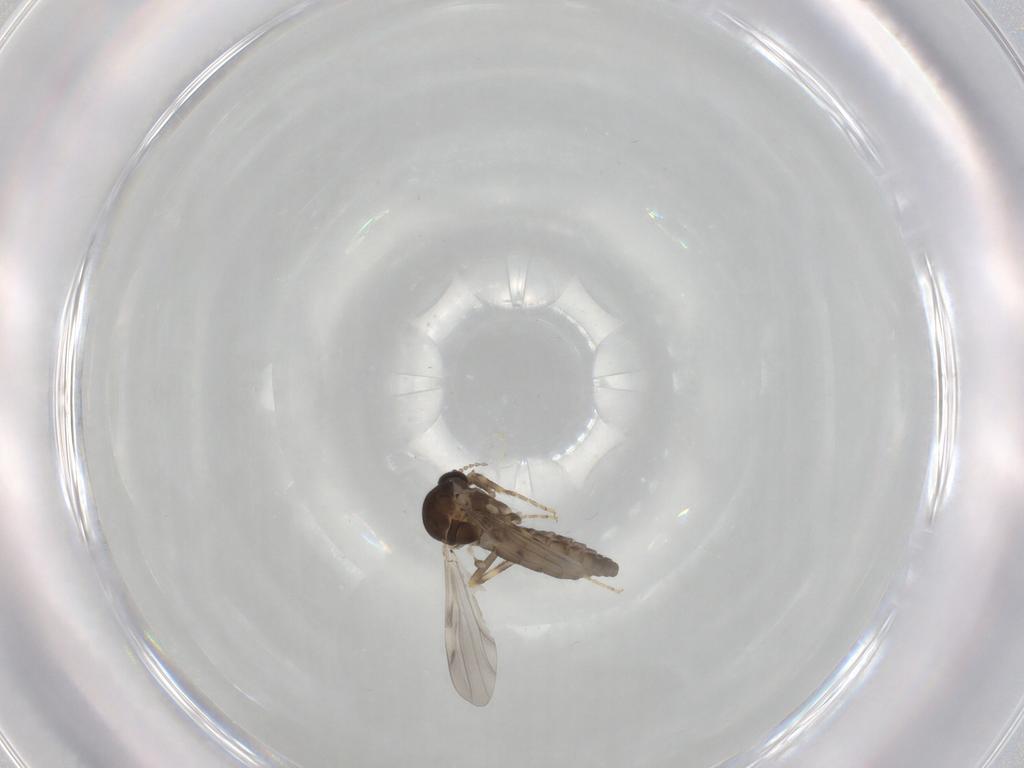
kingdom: Animalia
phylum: Arthropoda
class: Insecta
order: Diptera
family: Ceratopogonidae
